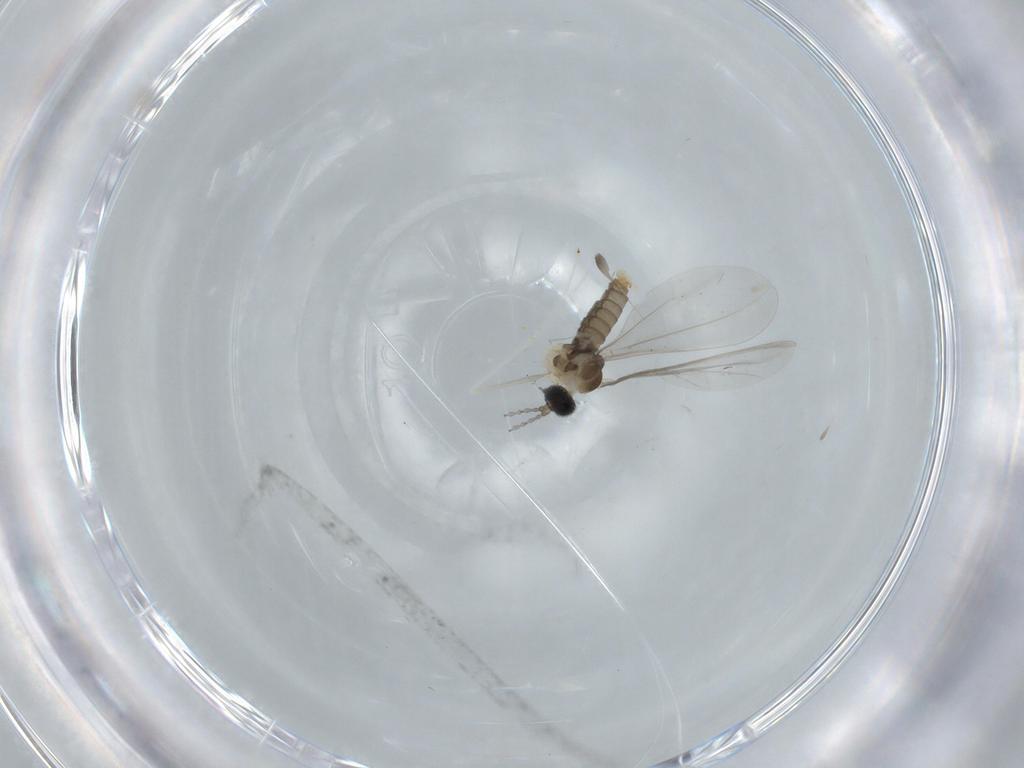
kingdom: Animalia
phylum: Arthropoda
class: Insecta
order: Diptera
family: Cecidomyiidae
